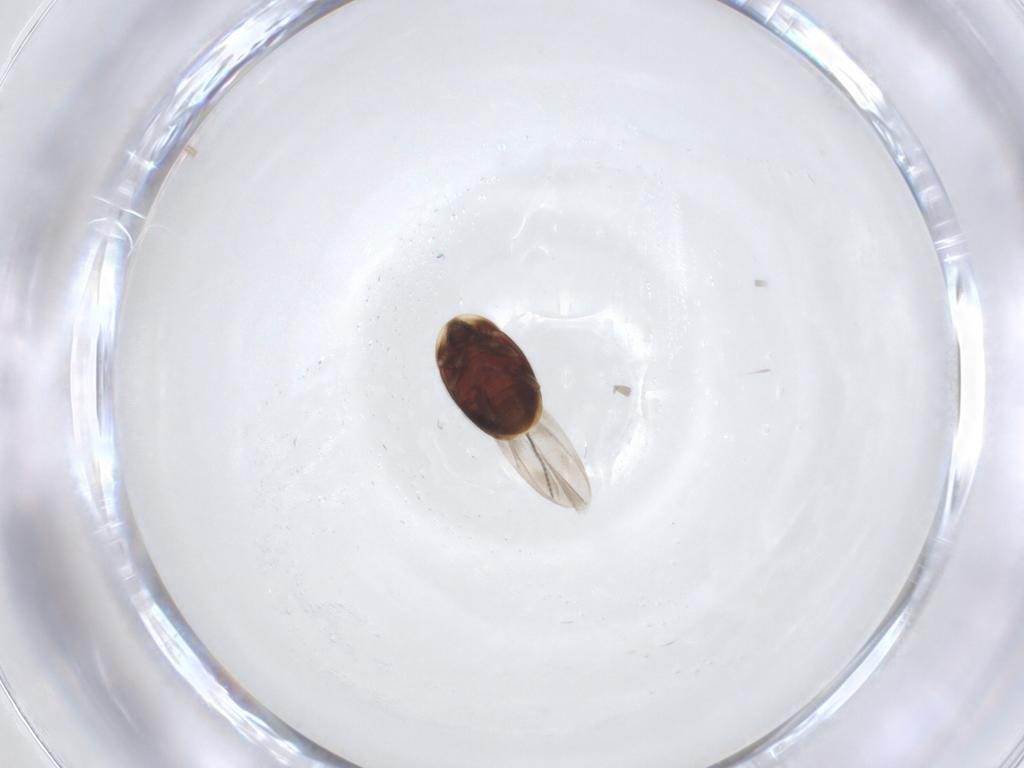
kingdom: Animalia
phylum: Arthropoda
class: Insecta
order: Coleoptera
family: Corylophidae
